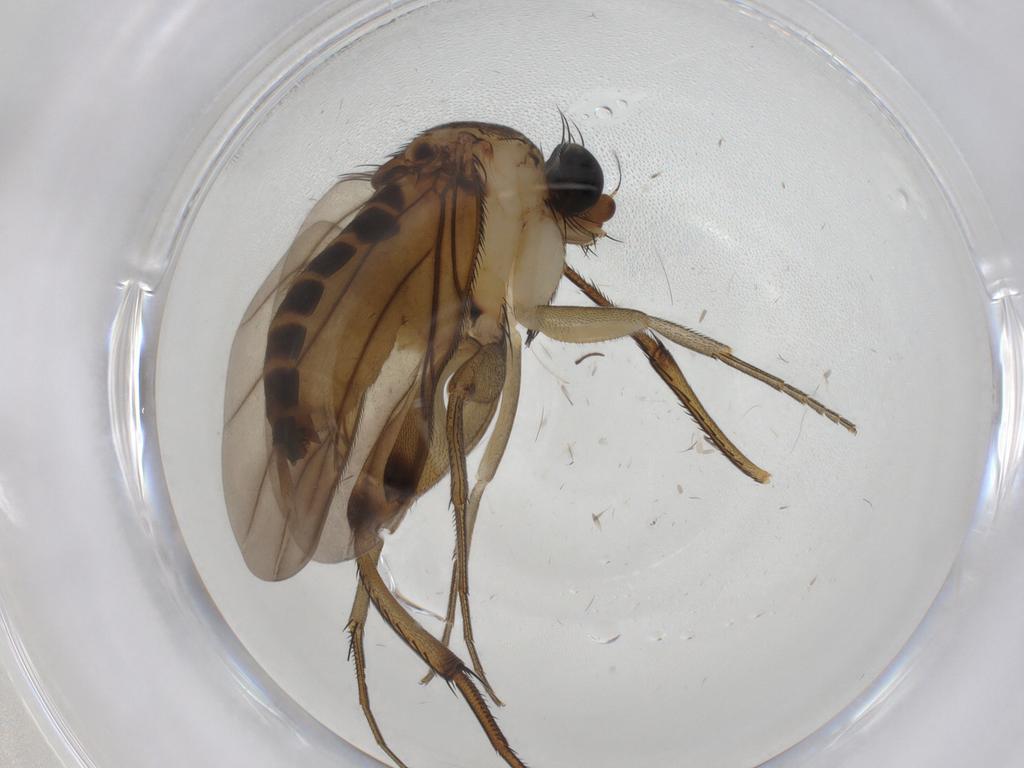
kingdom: Animalia
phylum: Arthropoda
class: Insecta
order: Diptera
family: Phoridae
